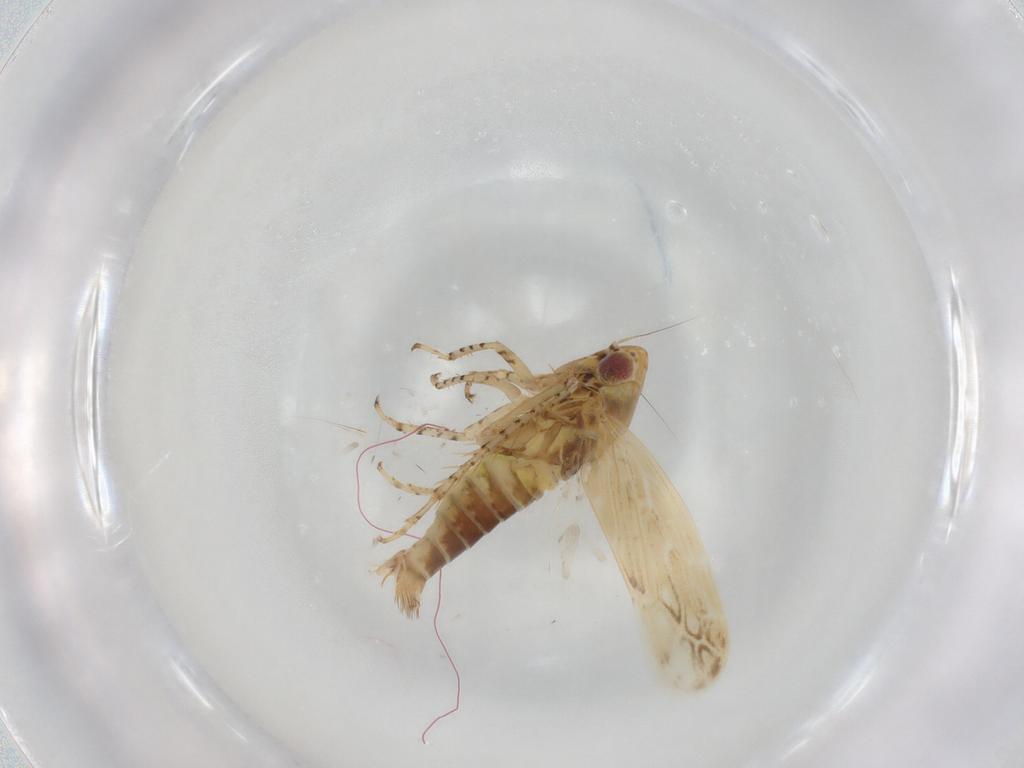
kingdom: Animalia
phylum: Arthropoda
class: Insecta
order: Hemiptera
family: Cicadellidae
